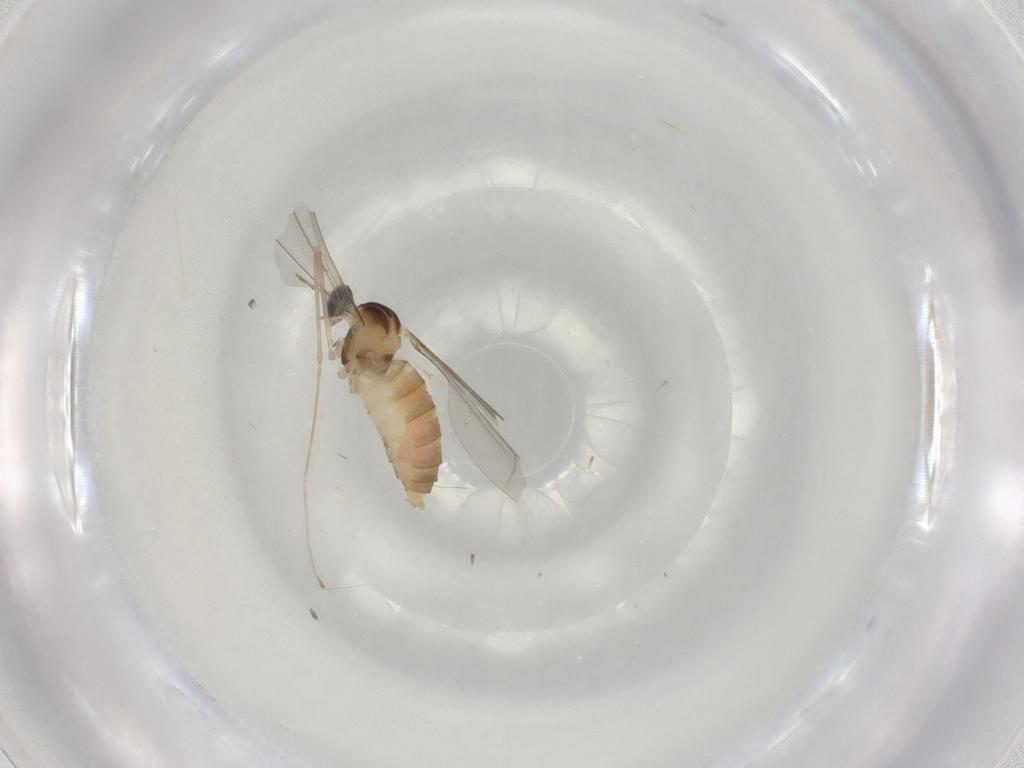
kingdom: Animalia
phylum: Arthropoda
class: Insecta
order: Diptera
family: Cecidomyiidae
